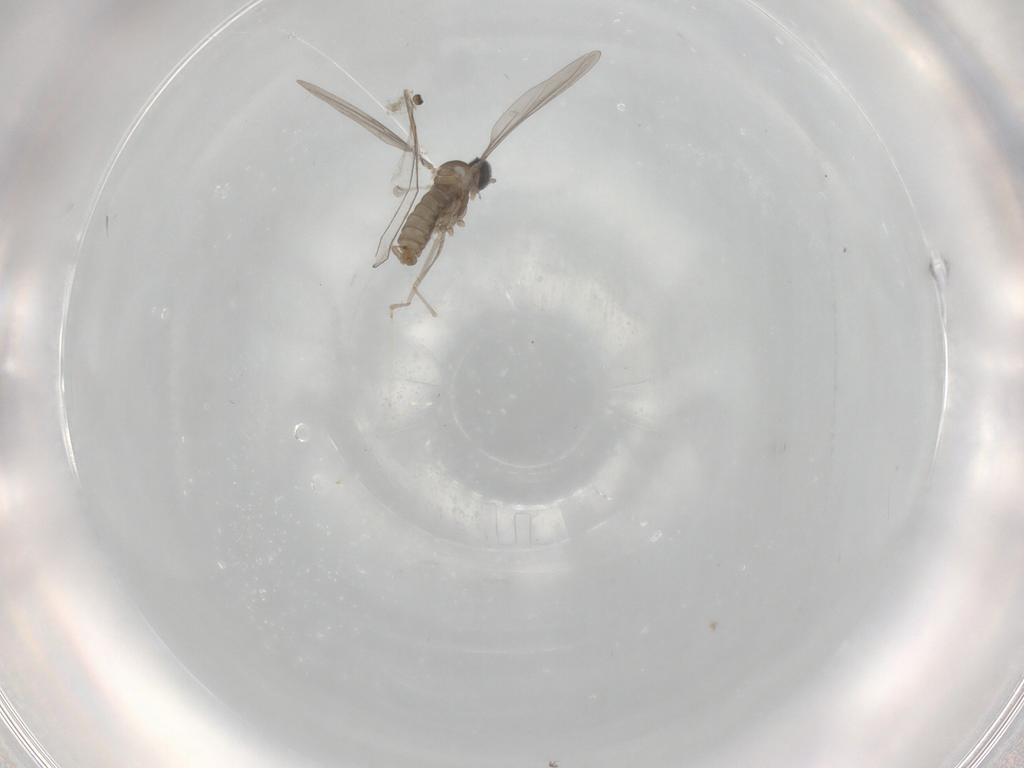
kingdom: Animalia
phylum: Arthropoda
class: Insecta
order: Diptera
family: Cecidomyiidae
